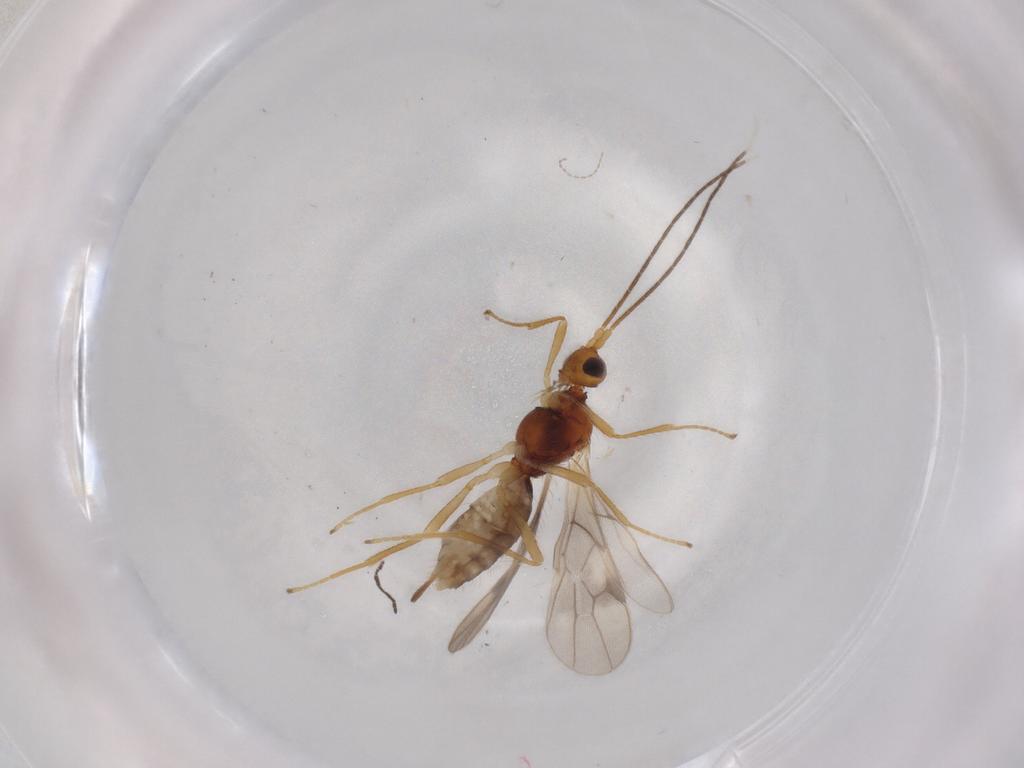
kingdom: Animalia
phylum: Arthropoda
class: Insecta
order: Hymenoptera
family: Braconidae
